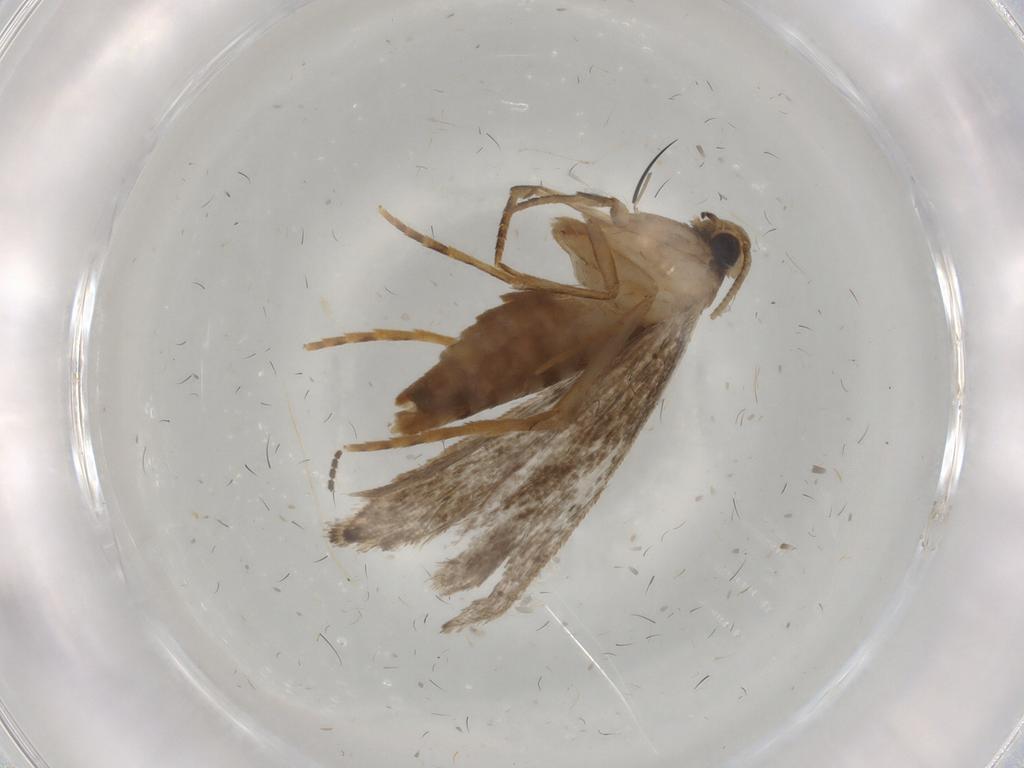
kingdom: Animalia
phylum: Arthropoda
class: Insecta
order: Lepidoptera
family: Tineidae
